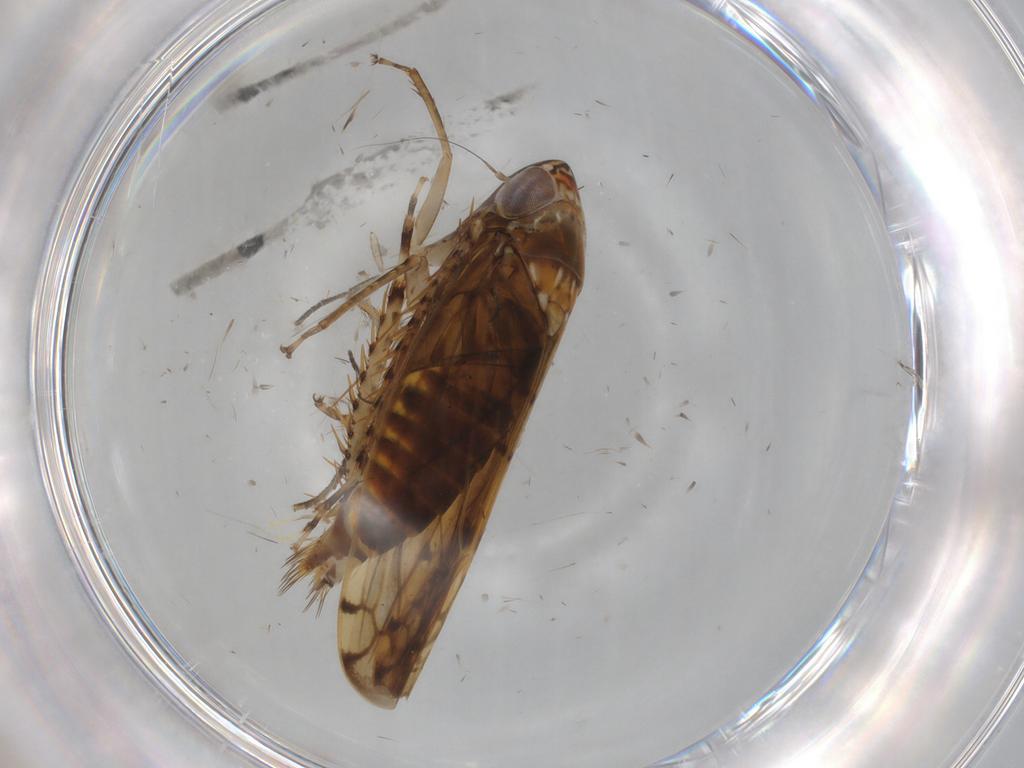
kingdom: Animalia
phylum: Arthropoda
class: Insecta
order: Hemiptera
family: Cicadellidae
